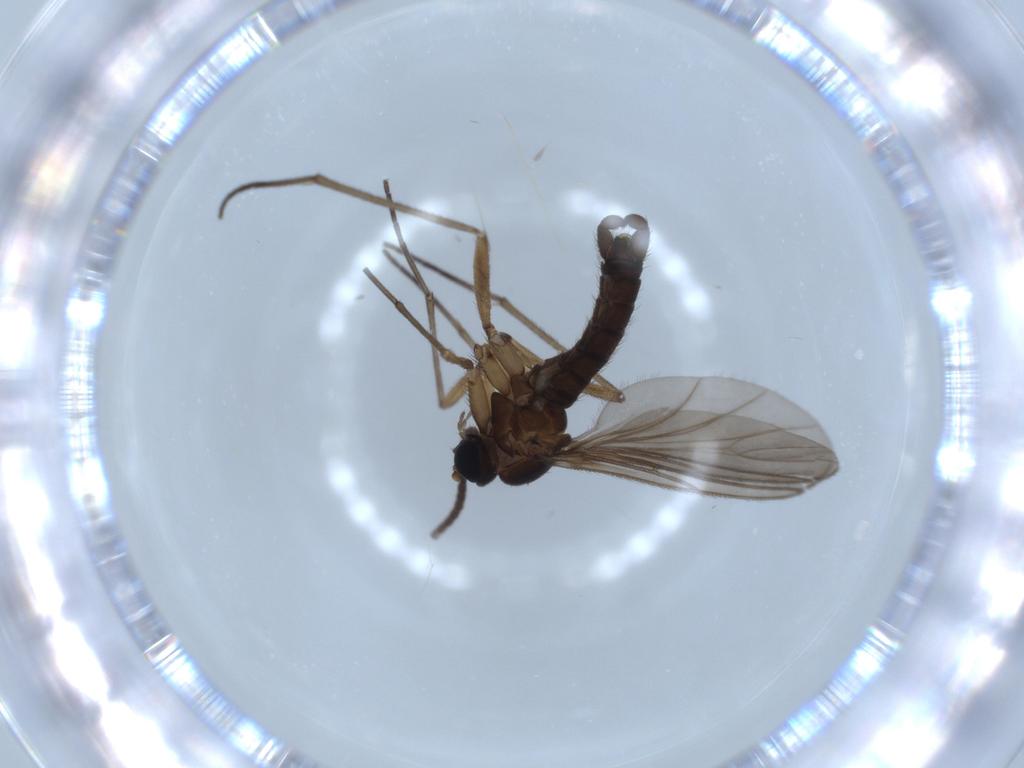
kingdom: Animalia
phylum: Arthropoda
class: Insecta
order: Diptera
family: Sciaridae
